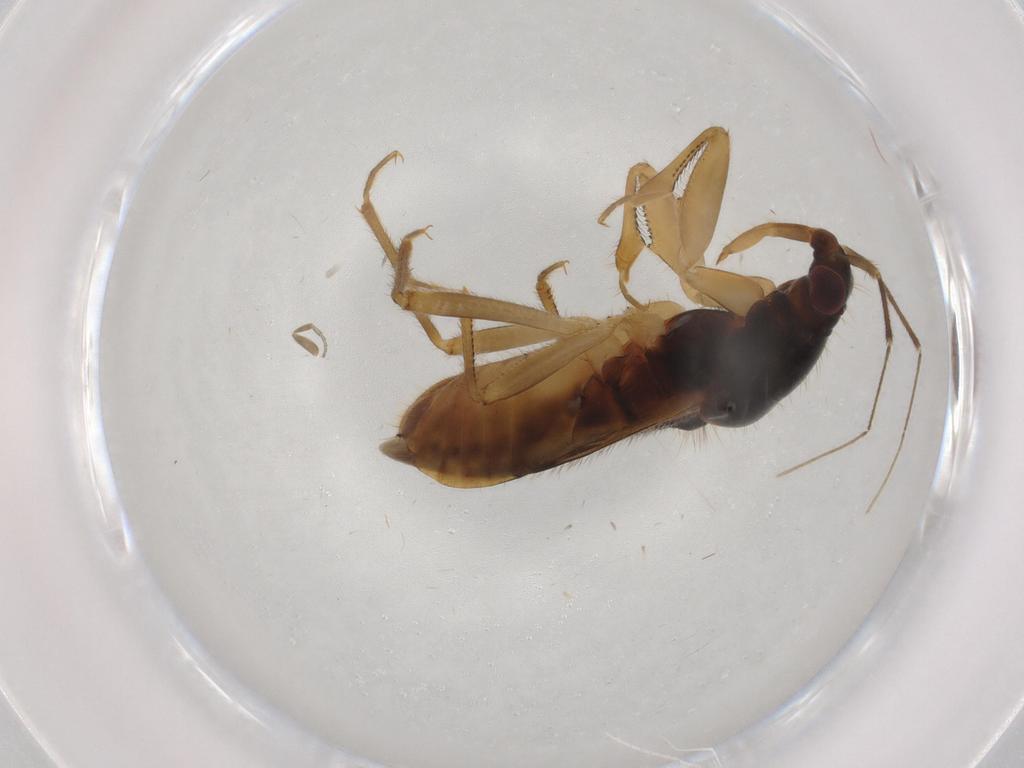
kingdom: Animalia
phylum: Arthropoda
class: Insecta
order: Hemiptera
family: Nabidae
